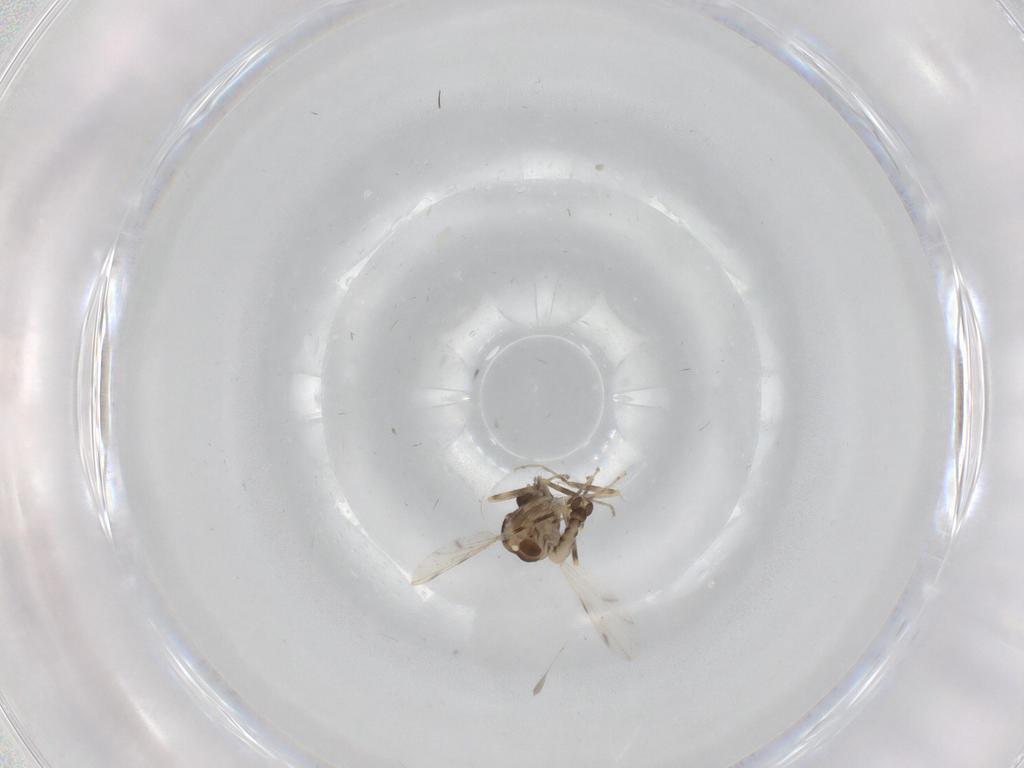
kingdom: Animalia
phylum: Arthropoda
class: Insecta
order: Diptera
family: Ceratopogonidae
